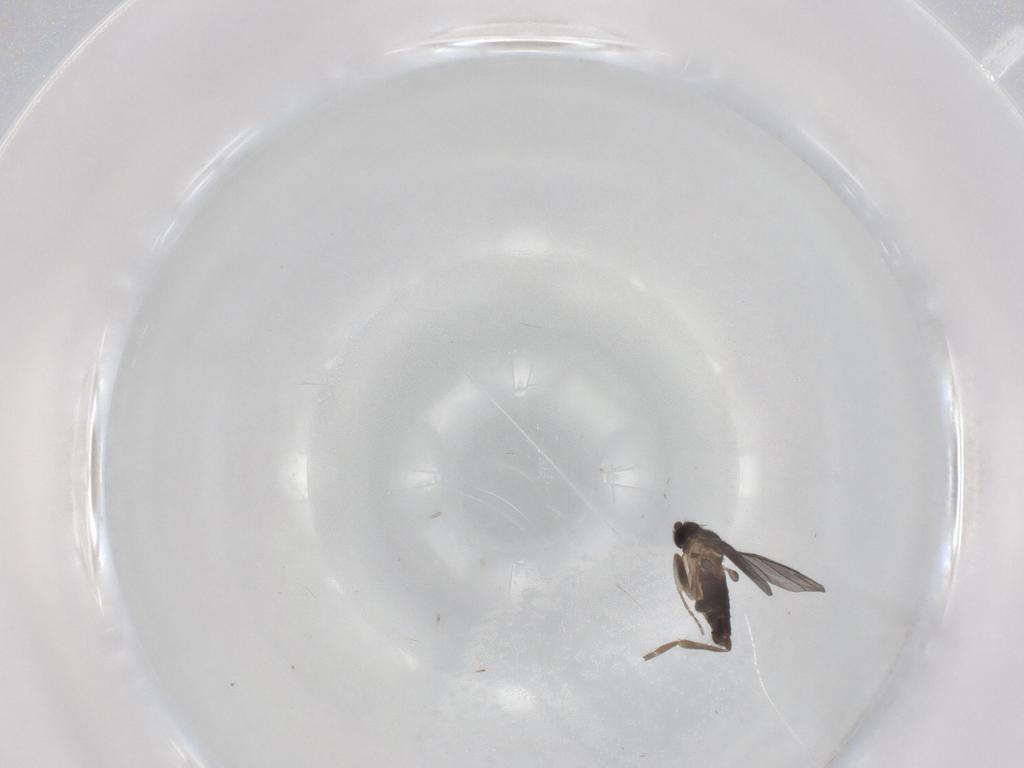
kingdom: Animalia
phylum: Arthropoda
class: Insecta
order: Diptera
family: Phoridae
